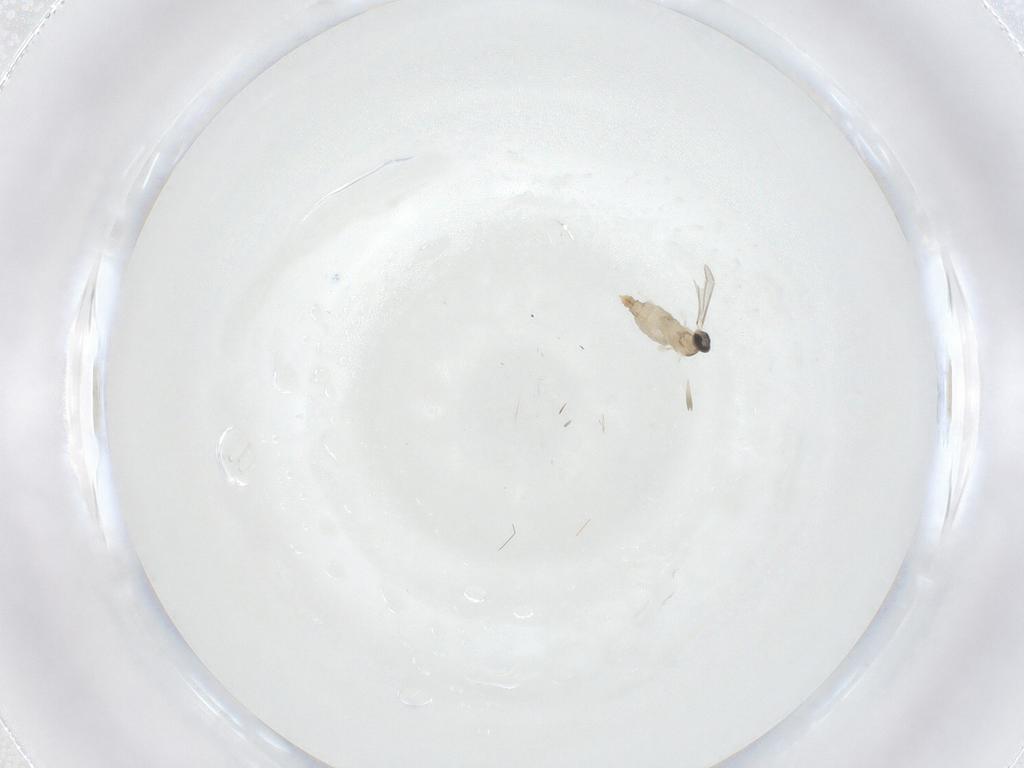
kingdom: Animalia
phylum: Arthropoda
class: Insecta
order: Diptera
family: Cecidomyiidae
